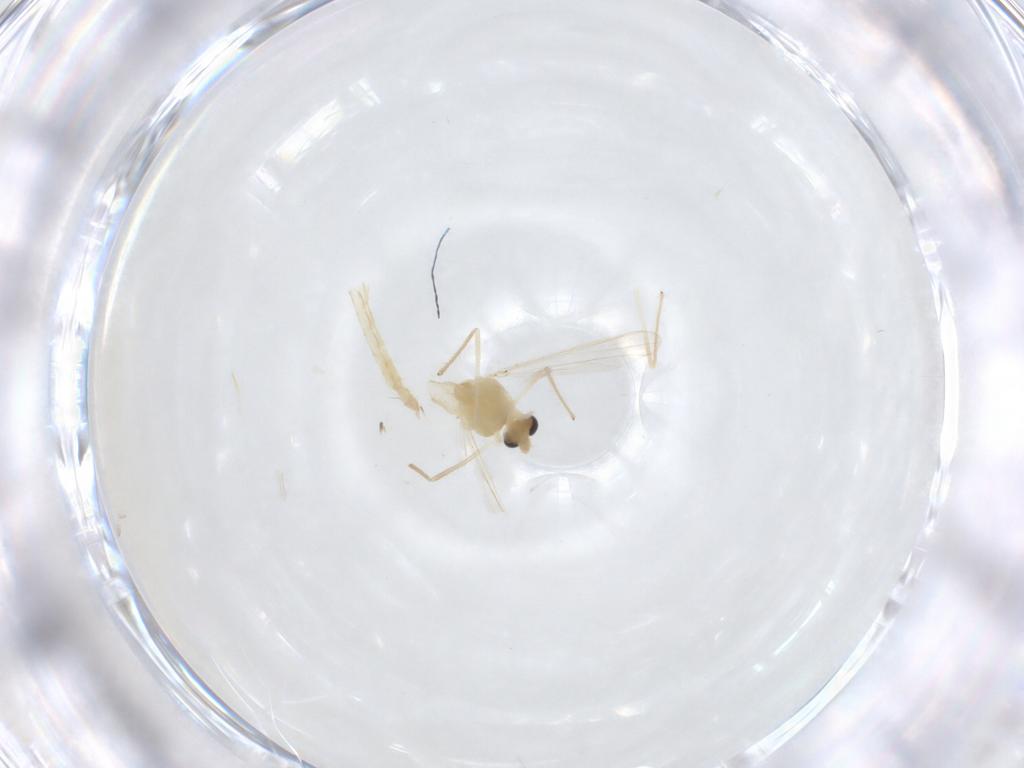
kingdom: Animalia
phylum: Arthropoda
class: Insecta
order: Diptera
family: Chironomidae
